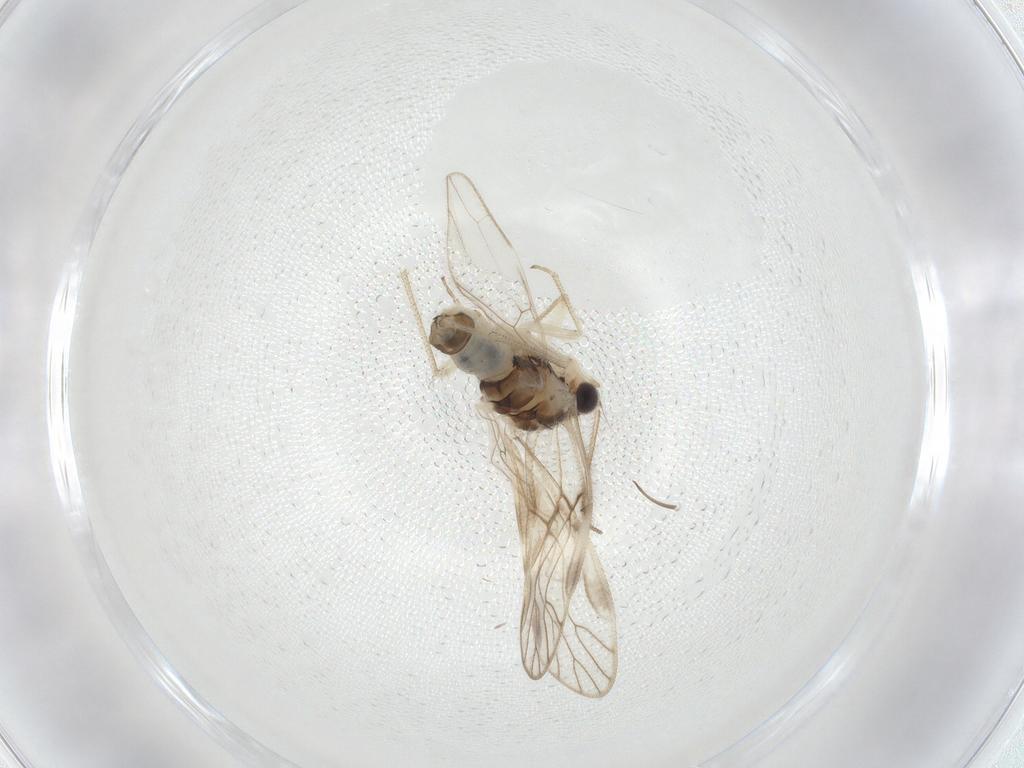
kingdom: Animalia
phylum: Arthropoda
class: Insecta
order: Psocodea
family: Caeciliusidae
